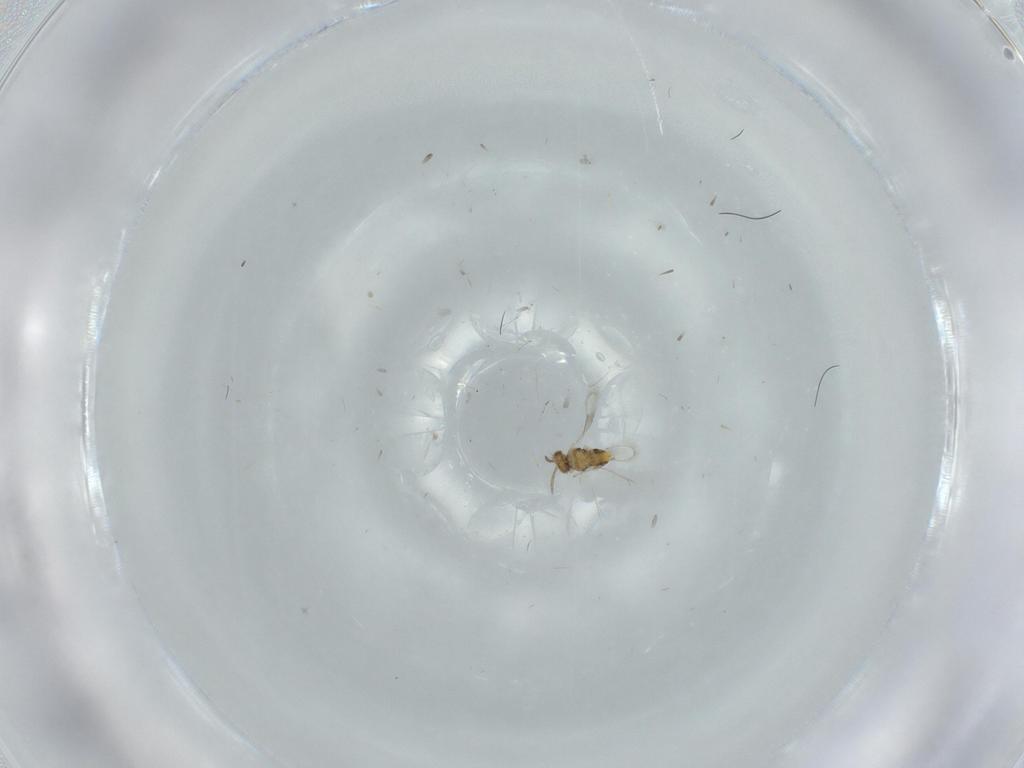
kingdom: Animalia
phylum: Arthropoda
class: Insecta
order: Hymenoptera
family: Aphelinidae
